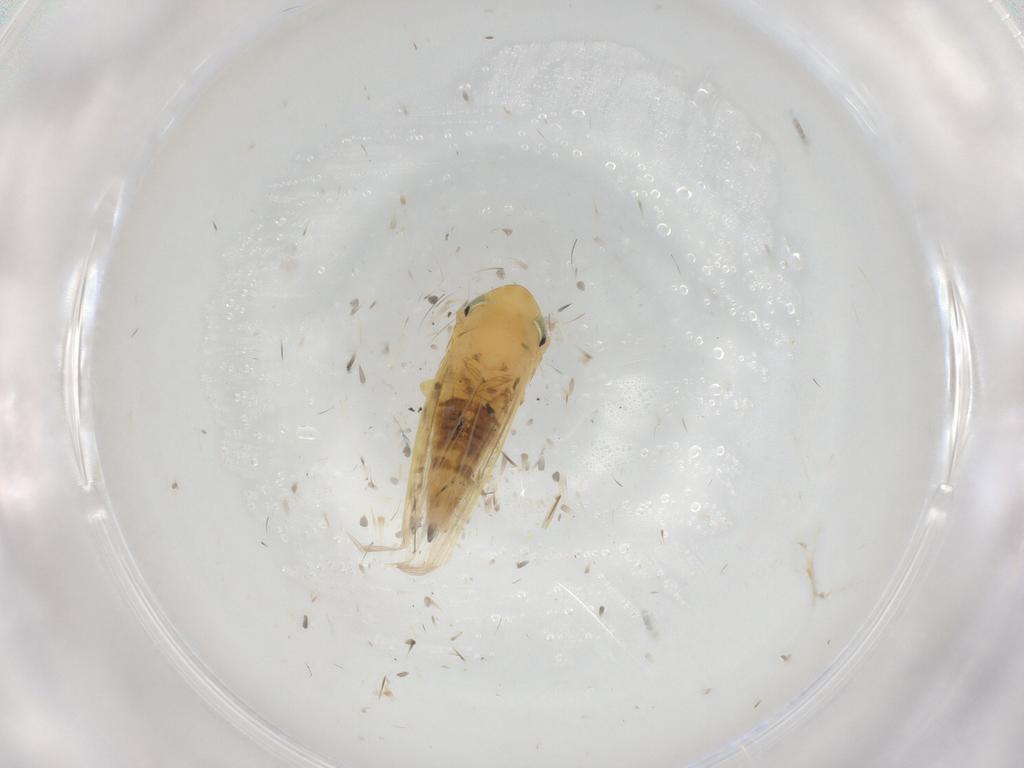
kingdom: Animalia
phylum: Arthropoda
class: Insecta
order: Hemiptera
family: Cicadellidae
